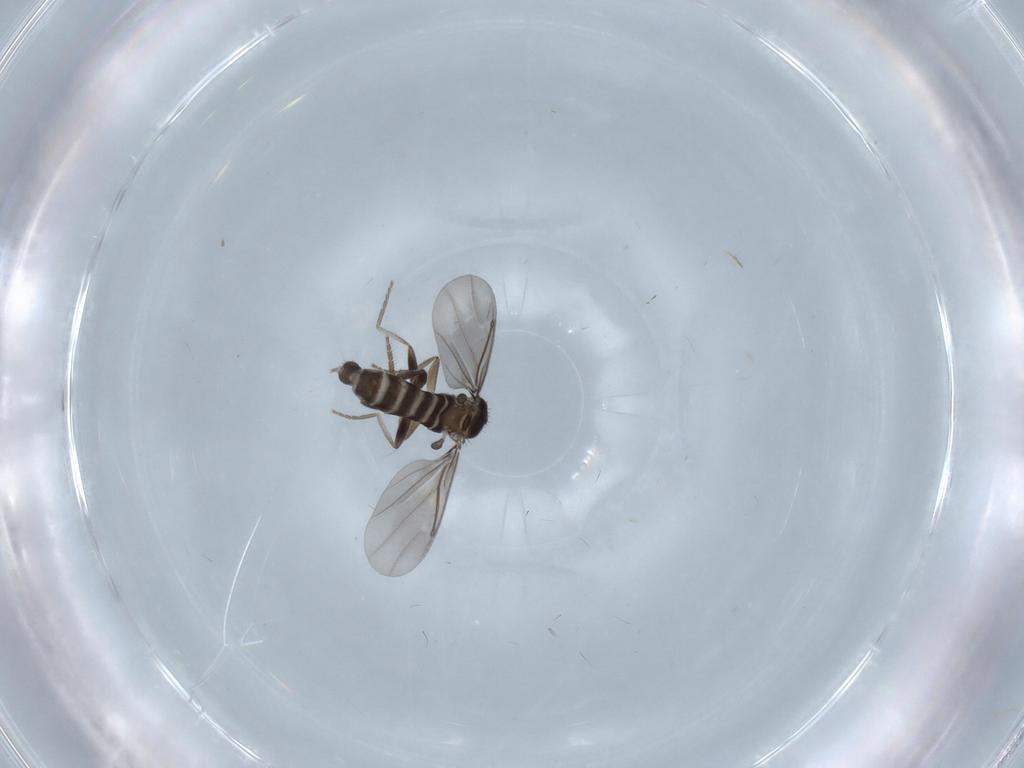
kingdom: Animalia
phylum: Arthropoda
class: Insecta
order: Diptera
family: Phoridae
